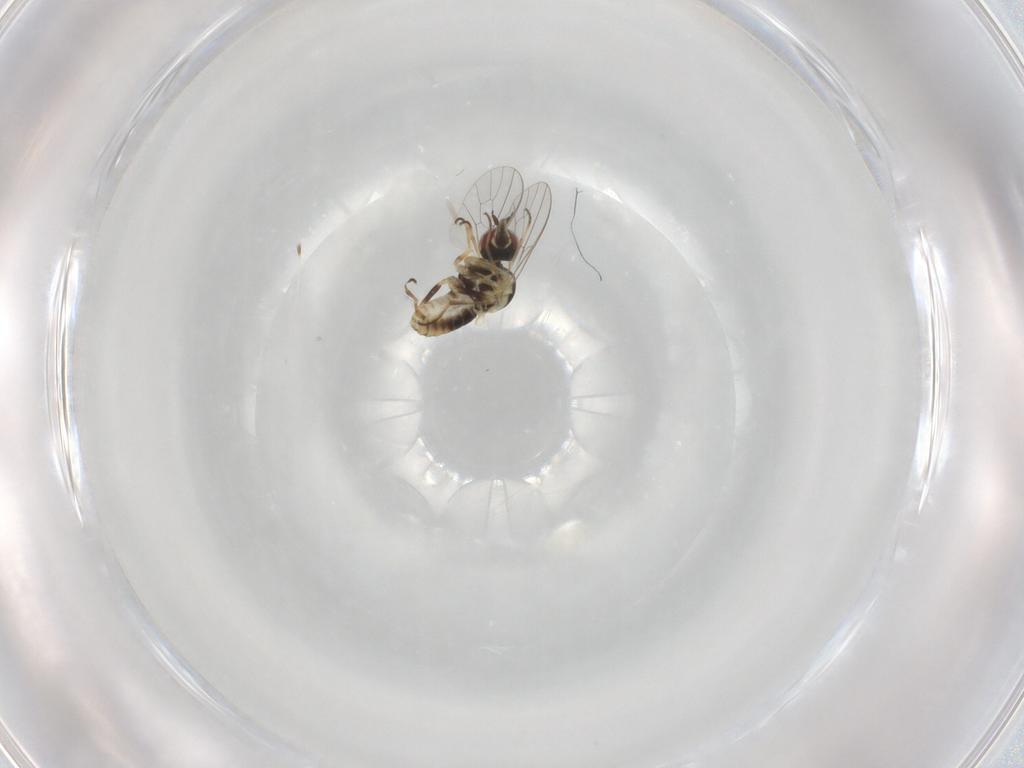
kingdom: Animalia
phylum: Arthropoda
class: Insecta
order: Diptera
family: Mythicomyiidae
